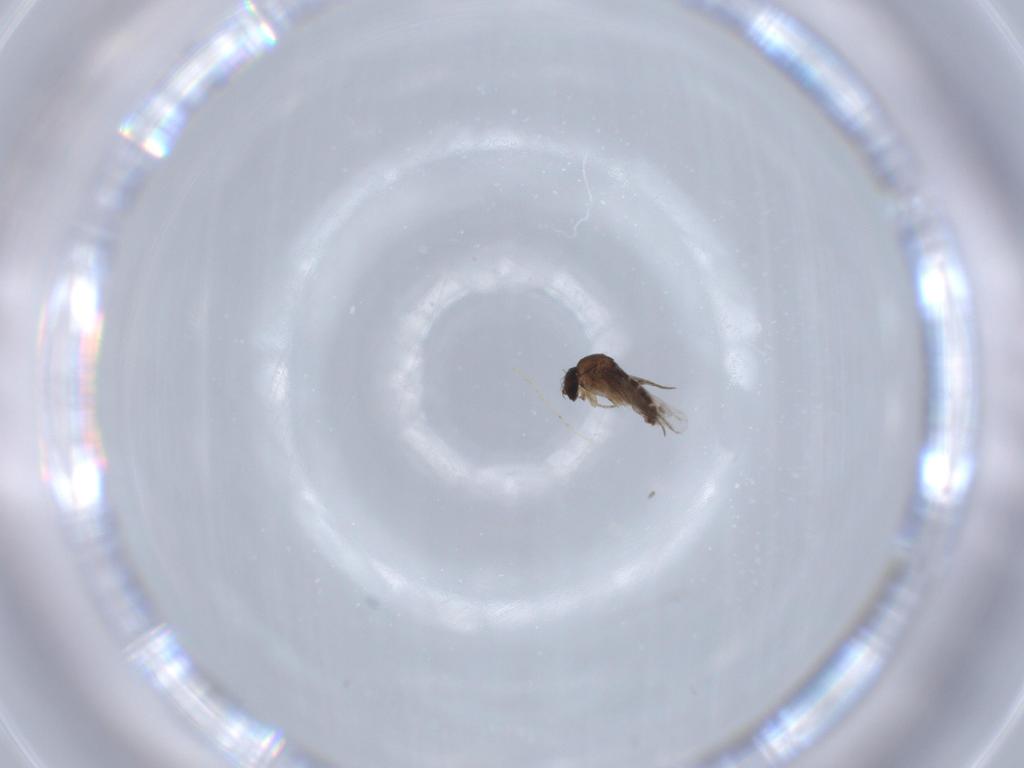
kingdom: Animalia
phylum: Arthropoda
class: Insecta
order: Diptera
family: Phoridae
